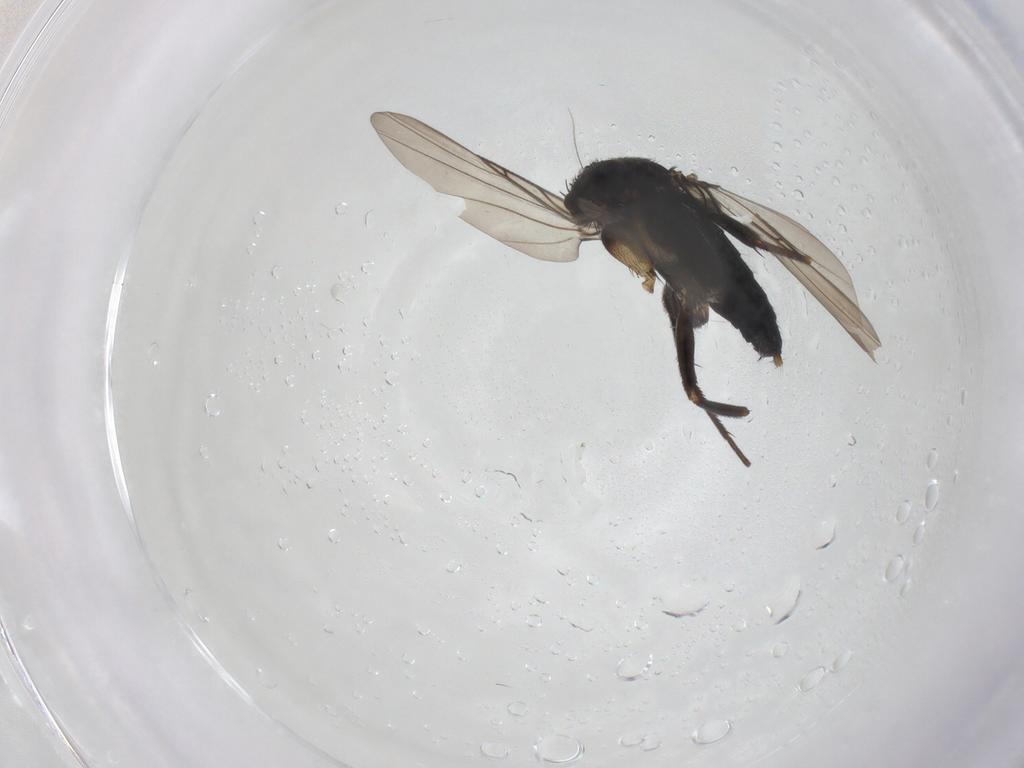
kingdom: Animalia
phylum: Arthropoda
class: Insecta
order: Diptera
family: Phoridae
